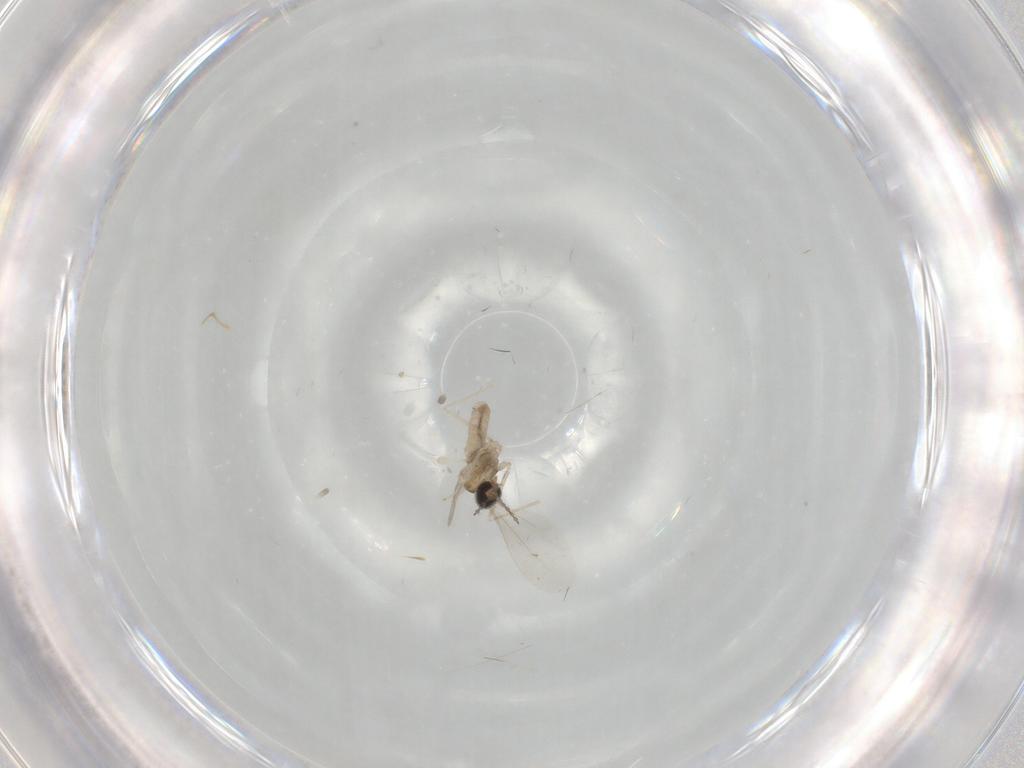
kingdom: Animalia
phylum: Arthropoda
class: Insecta
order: Diptera
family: Cecidomyiidae
